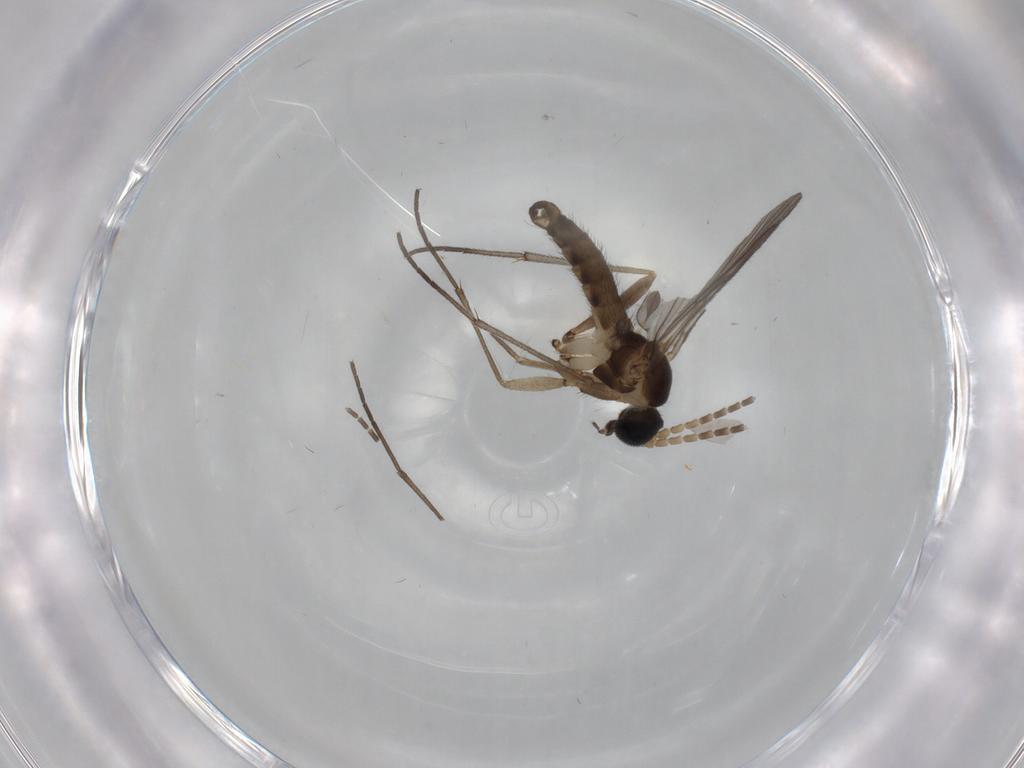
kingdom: Animalia
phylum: Arthropoda
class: Insecta
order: Diptera
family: Sciaridae
